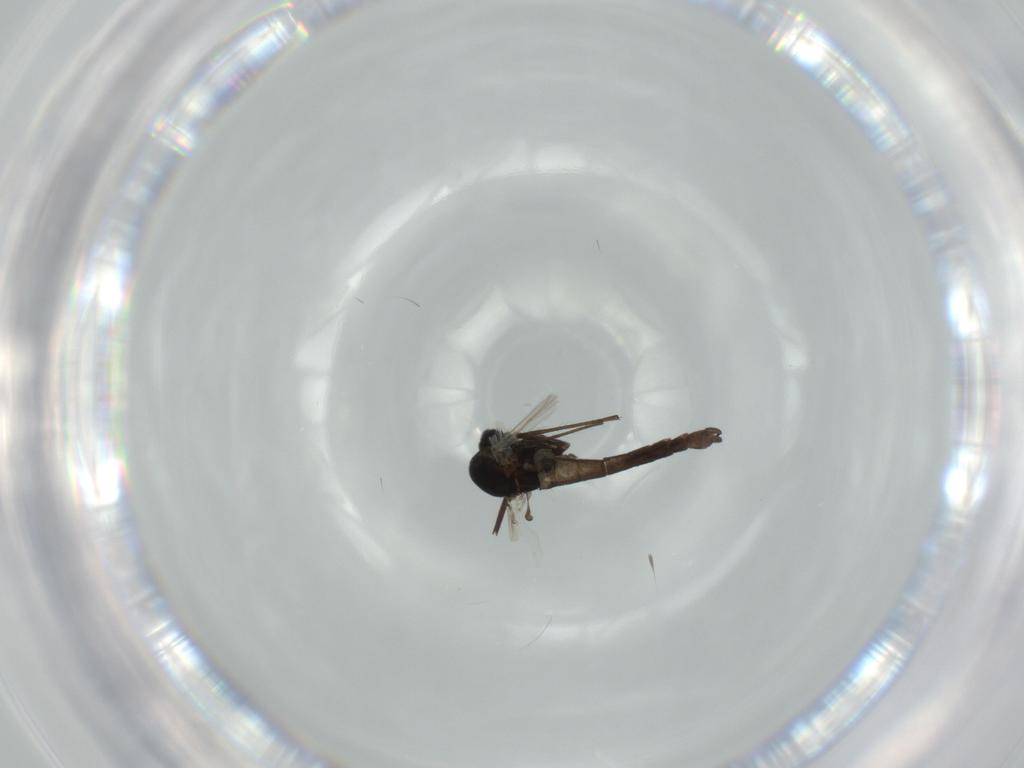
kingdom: Animalia
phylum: Arthropoda
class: Insecta
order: Diptera
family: Chironomidae
